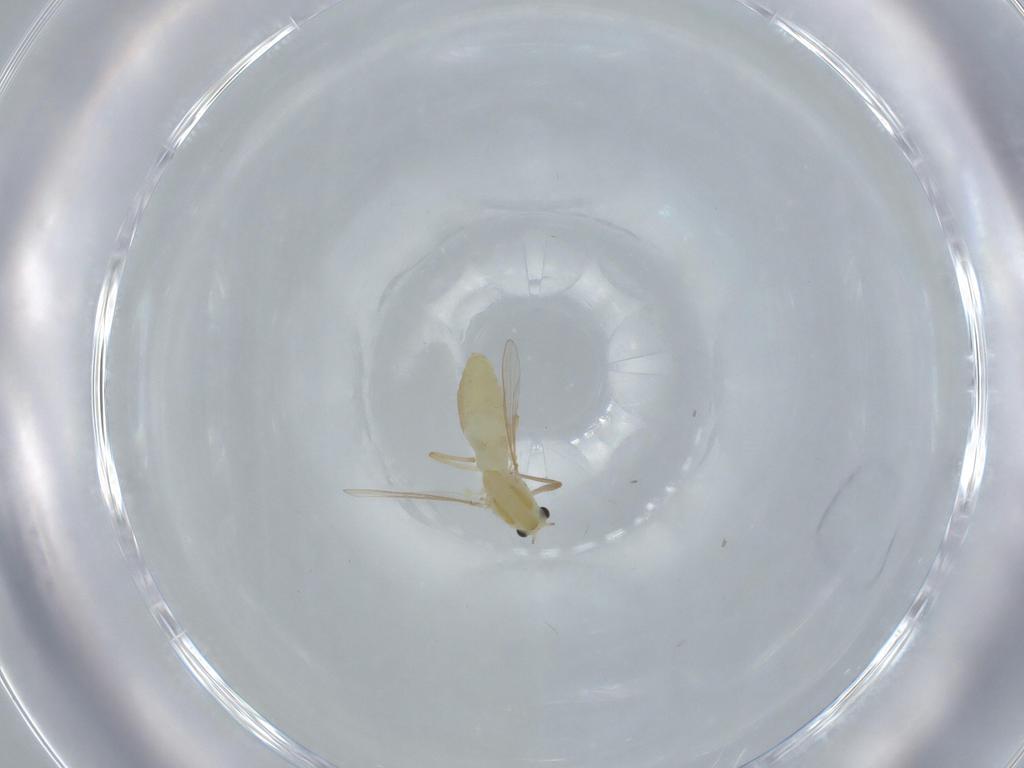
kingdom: Animalia
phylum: Arthropoda
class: Insecta
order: Diptera
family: Chironomidae
